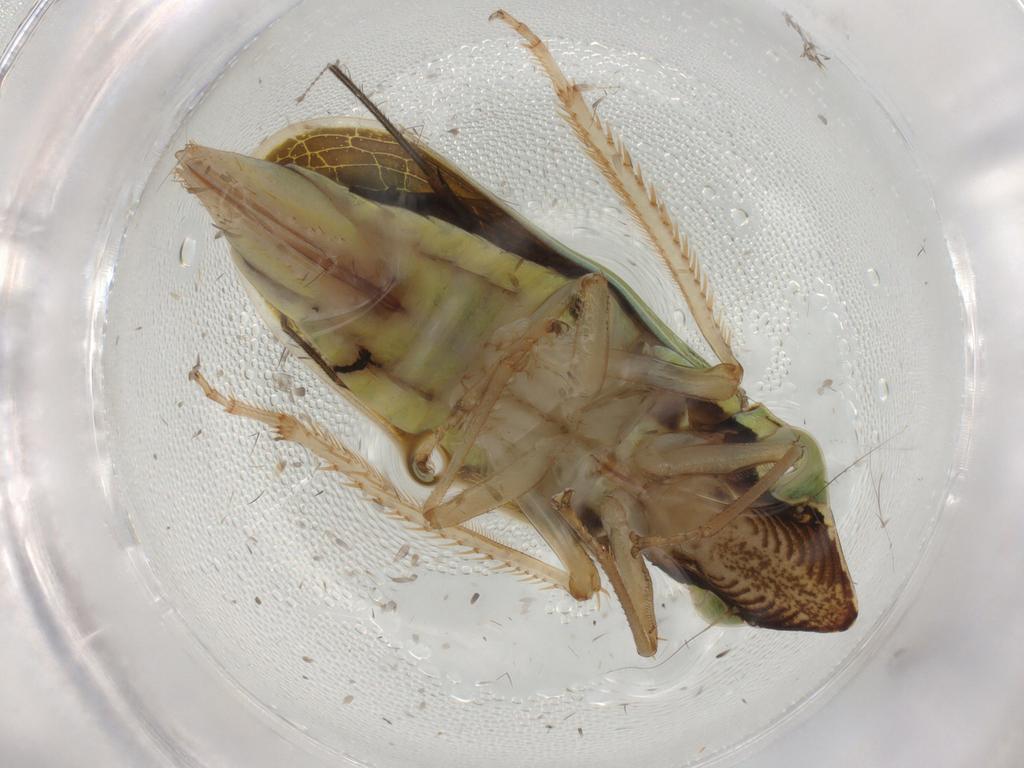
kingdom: Animalia
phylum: Arthropoda
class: Insecta
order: Hemiptera
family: Cicadellidae
